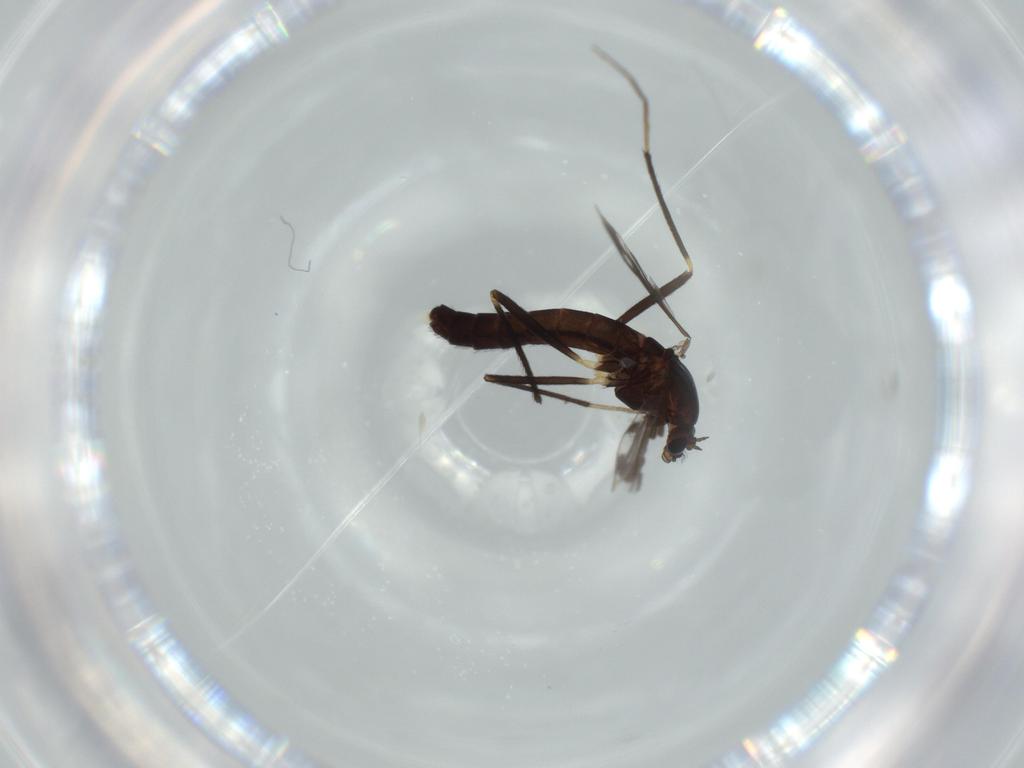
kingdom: Animalia
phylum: Arthropoda
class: Insecta
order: Diptera
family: Chironomidae
